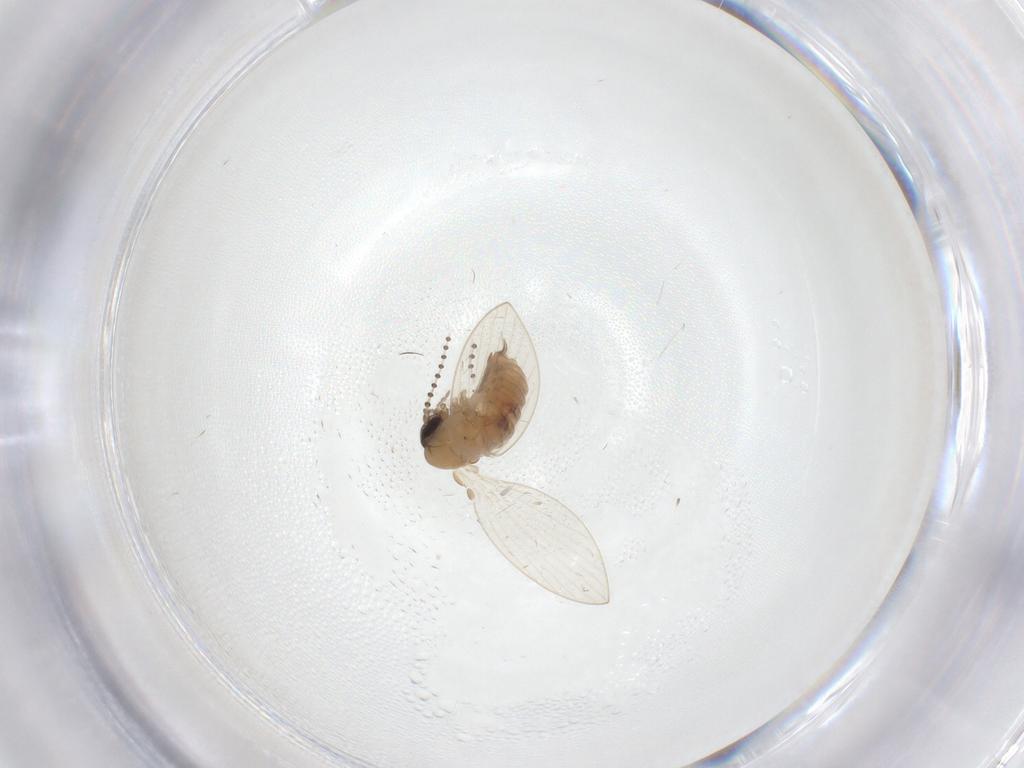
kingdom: Animalia
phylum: Arthropoda
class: Insecta
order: Diptera
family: Psychodidae
